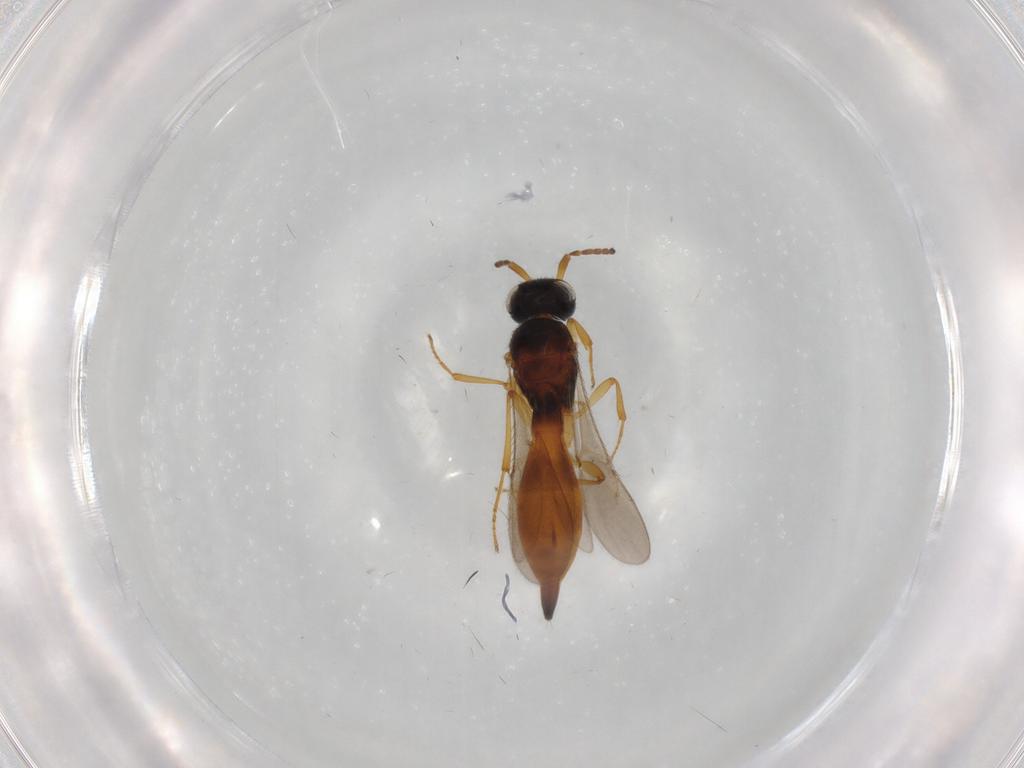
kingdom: Animalia
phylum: Arthropoda
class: Insecta
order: Hymenoptera
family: Scelionidae
